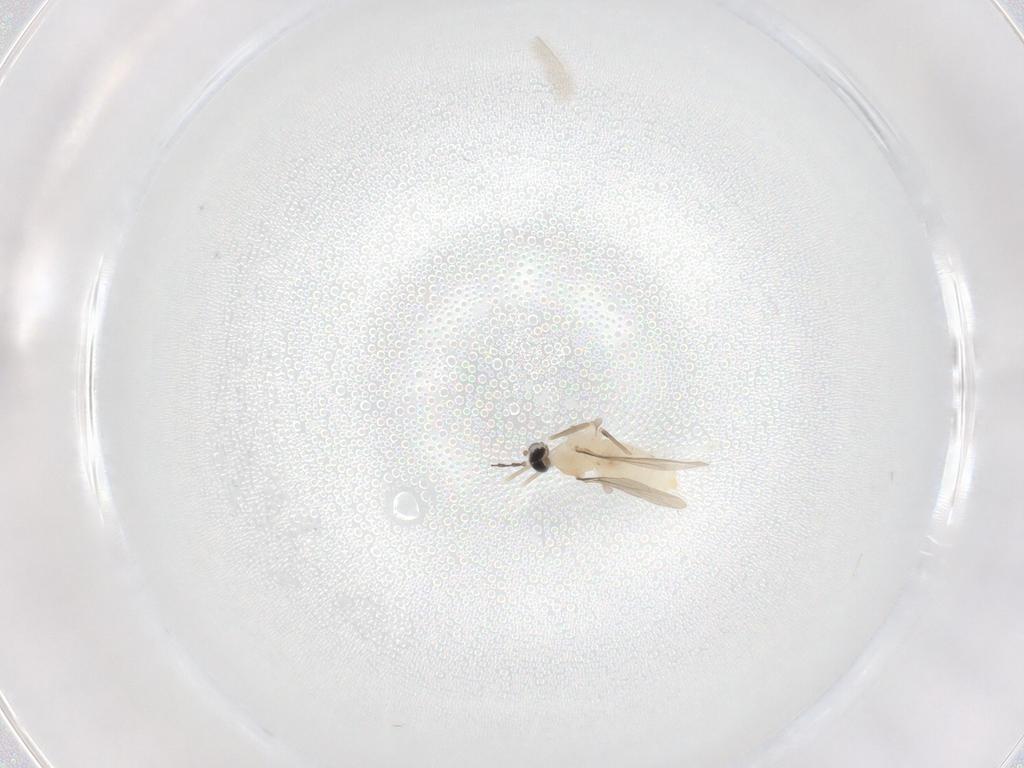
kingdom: Animalia
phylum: Arthropoda
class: Insecta
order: Diptera
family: Cecidomyiidae
